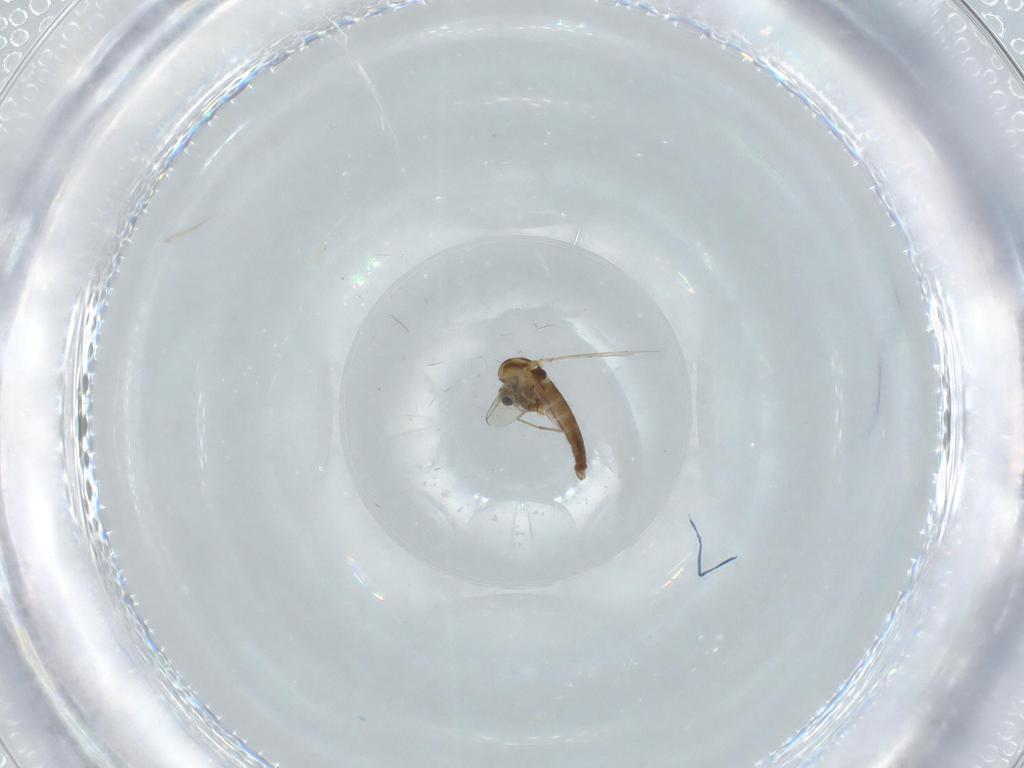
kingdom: Animalia
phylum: Arthropoda
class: Insecta
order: Diptera
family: Chironomidae
